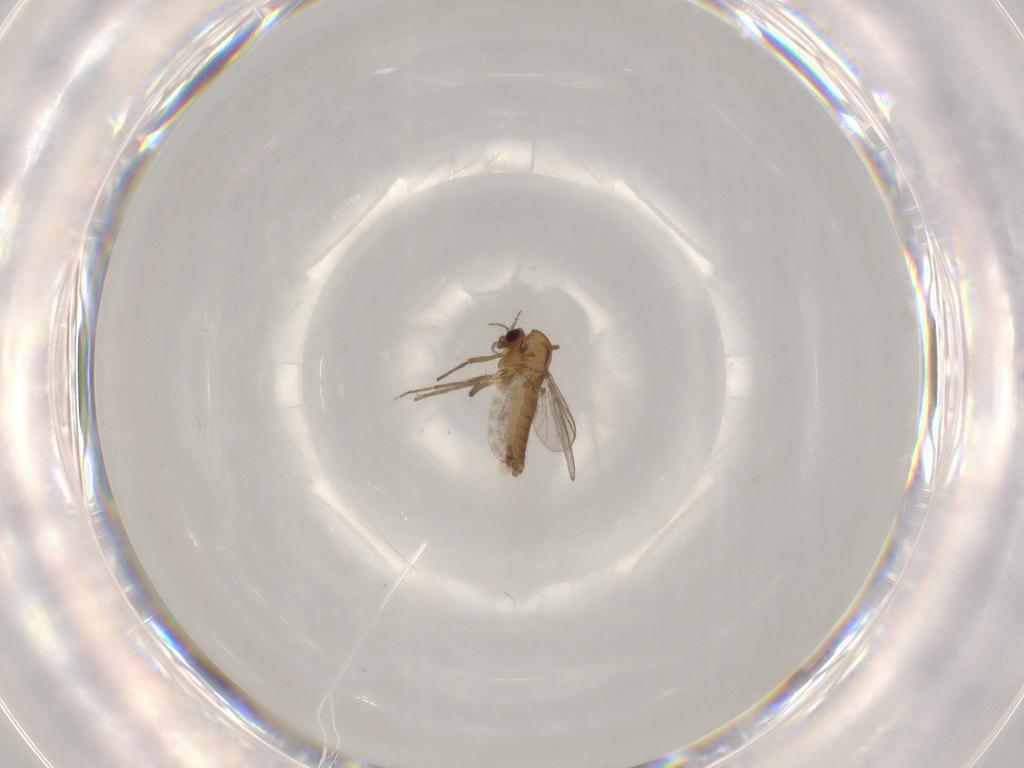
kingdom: Animalia
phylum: Arthropoda
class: Insecta
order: Diptera
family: Chironomidae
